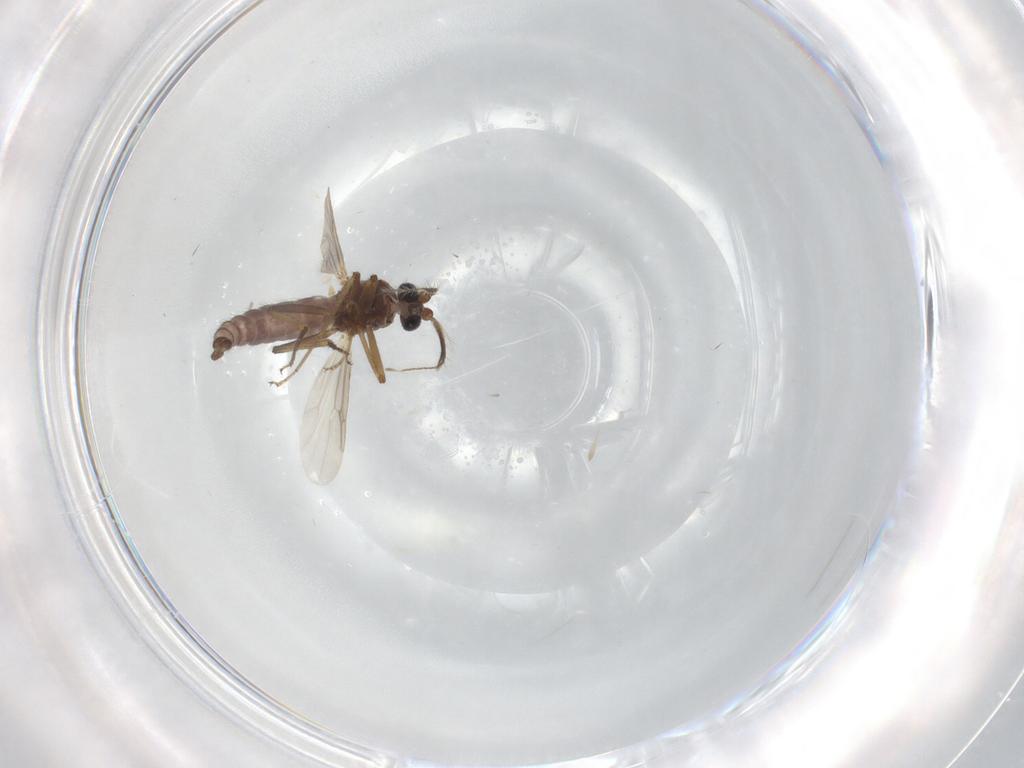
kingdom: Animalia
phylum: Arthropoda
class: Insecta
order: Diptera
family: Ceratopogonidae
